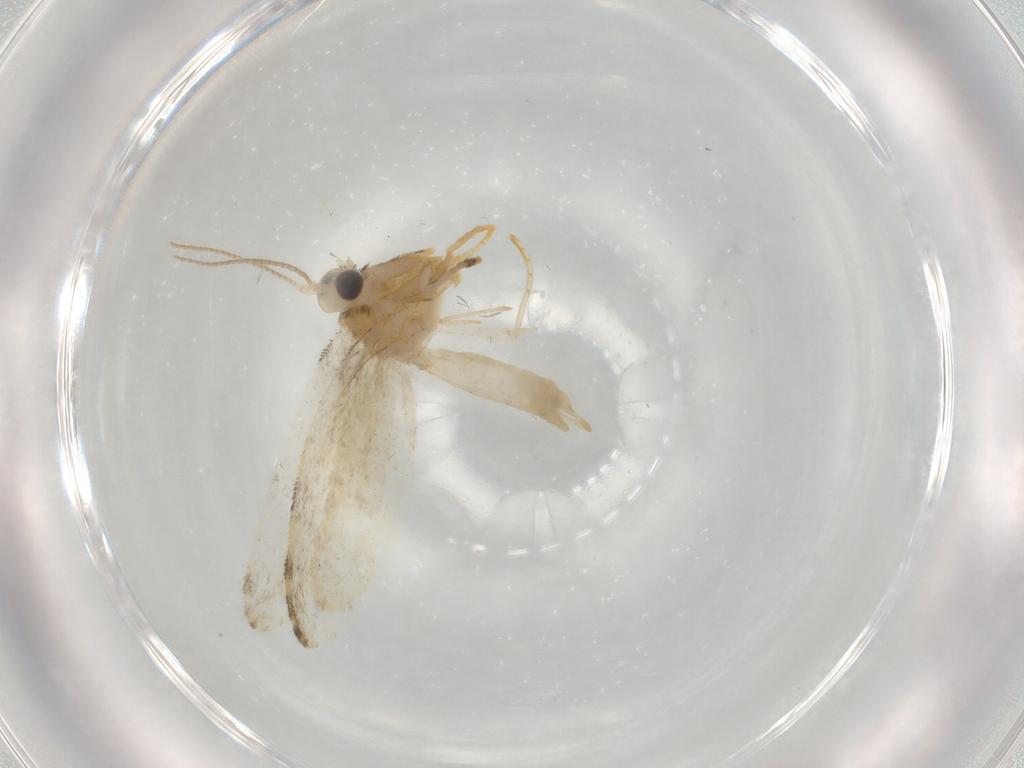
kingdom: Animalia
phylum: Arthropoda
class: Insecta
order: Lepidoptera
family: Psychidae
